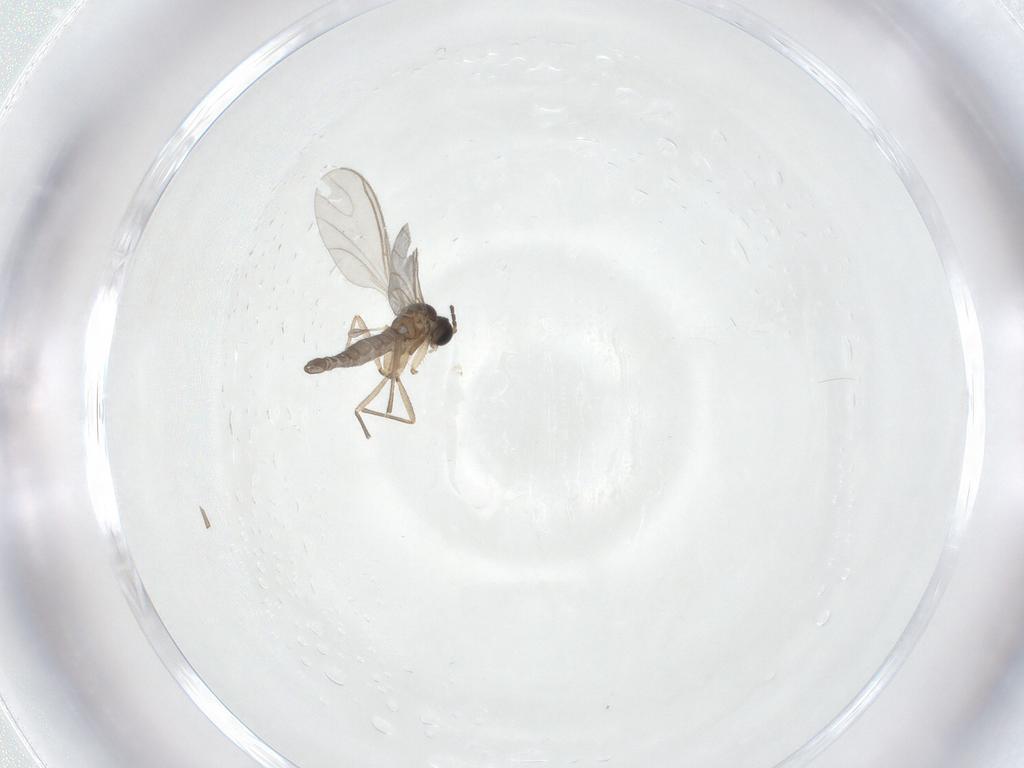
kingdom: Animalia
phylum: Arthropoda
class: Insecta
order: Diptera
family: Sciaridae
